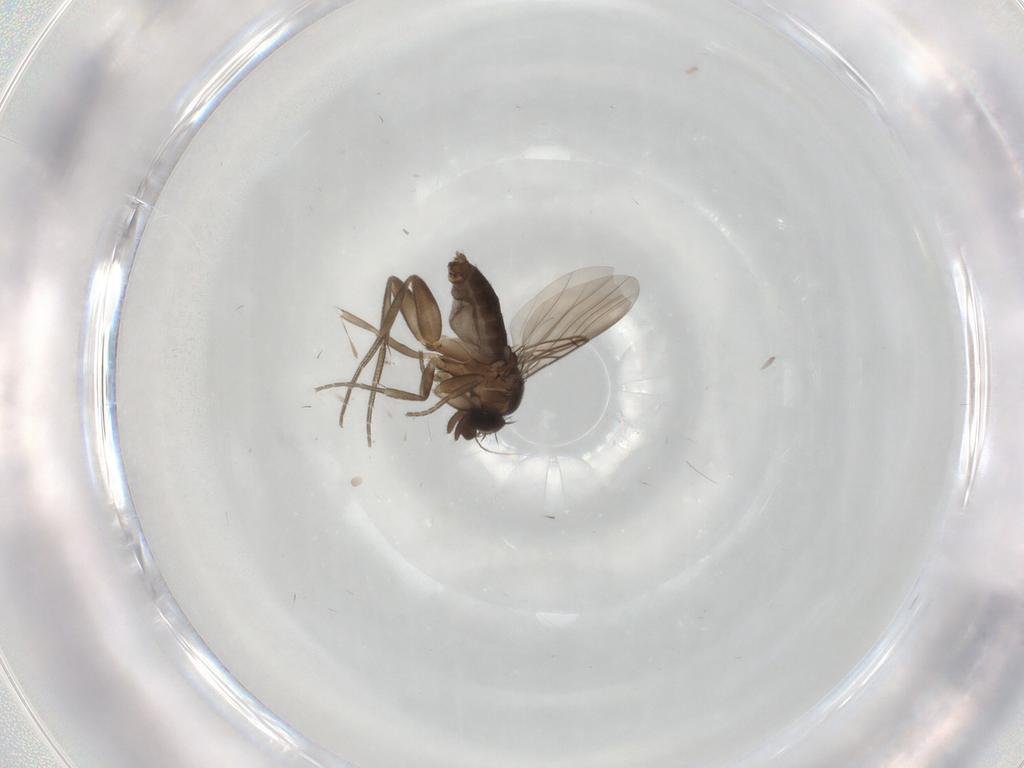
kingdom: Animalia
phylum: Arthropoda
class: Insecta
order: Diptera
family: Phoridae
